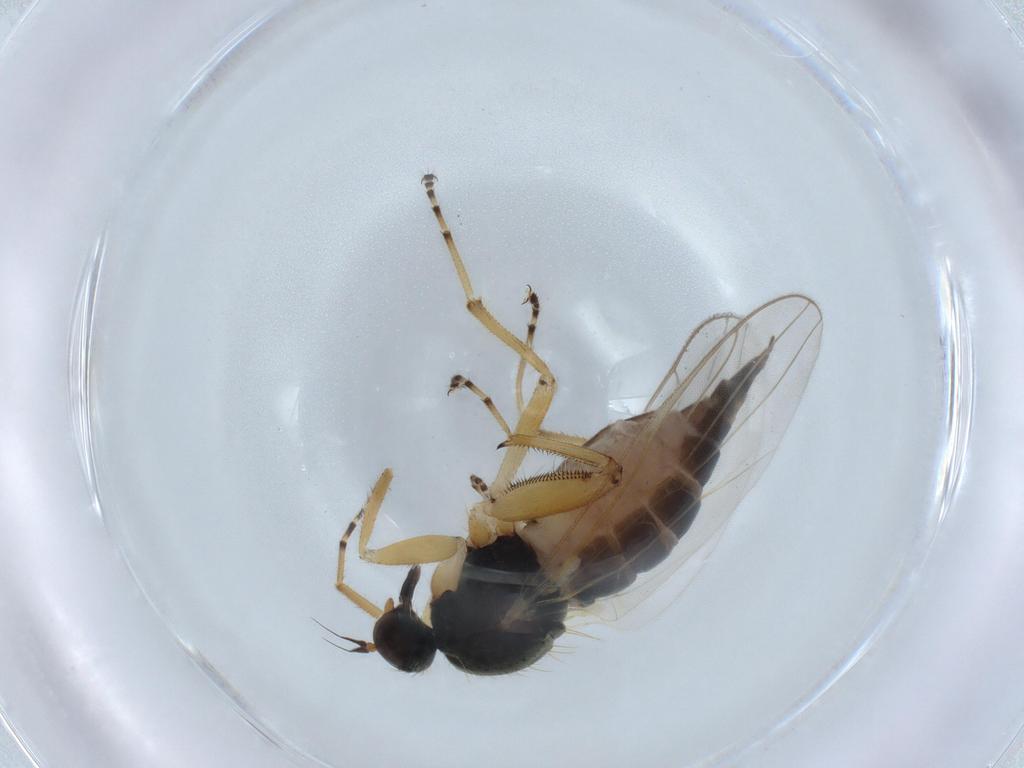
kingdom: Animalia
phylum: Arthropoda
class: Insecta
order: Diptera
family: Hybotidae
